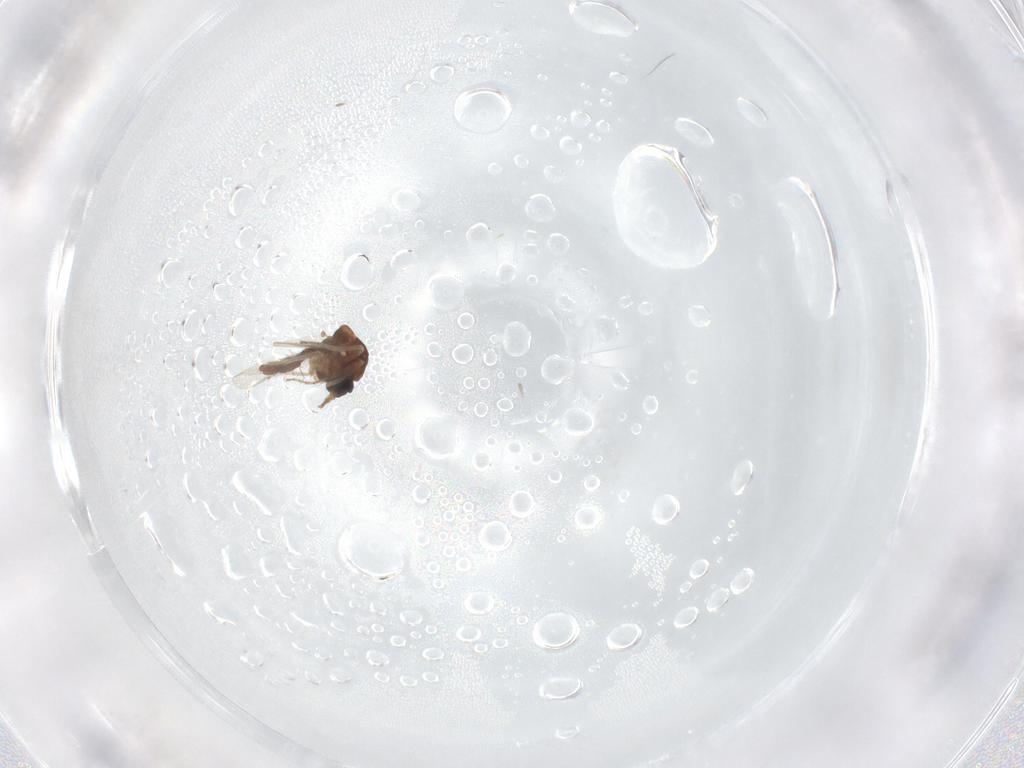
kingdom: Animalia
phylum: Arthropoda
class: Insecta
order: Diptera
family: Ceratopogonidae
